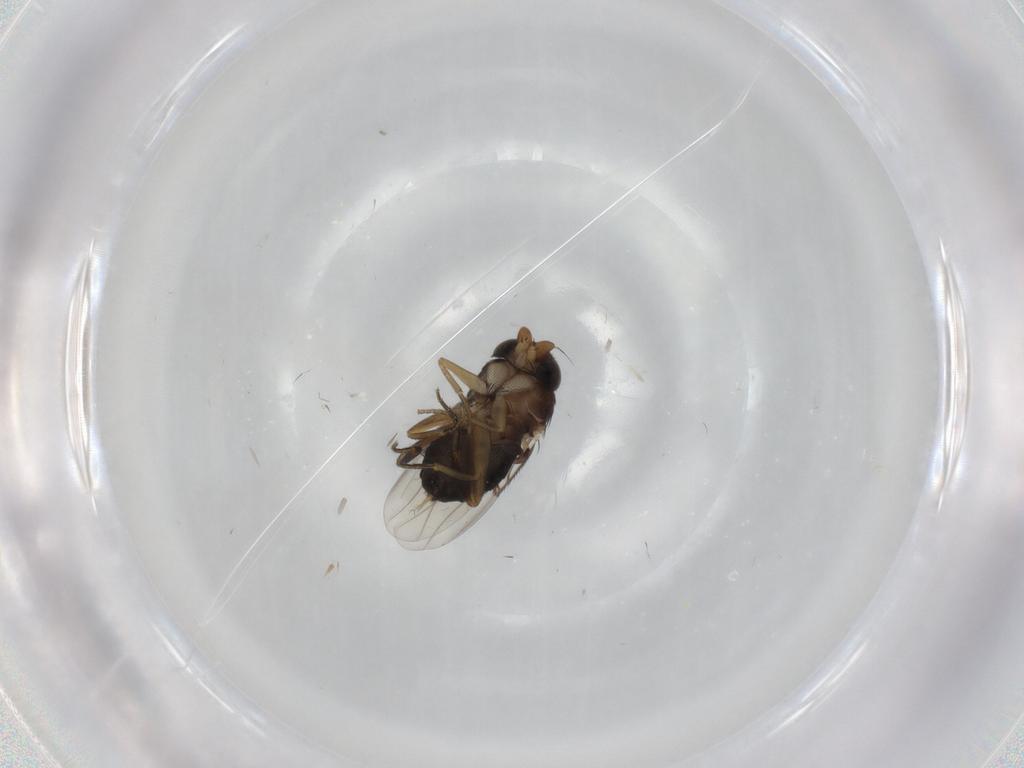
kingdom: Animalia
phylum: Arthropoda
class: Insecta
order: Diptera
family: Phoridae
